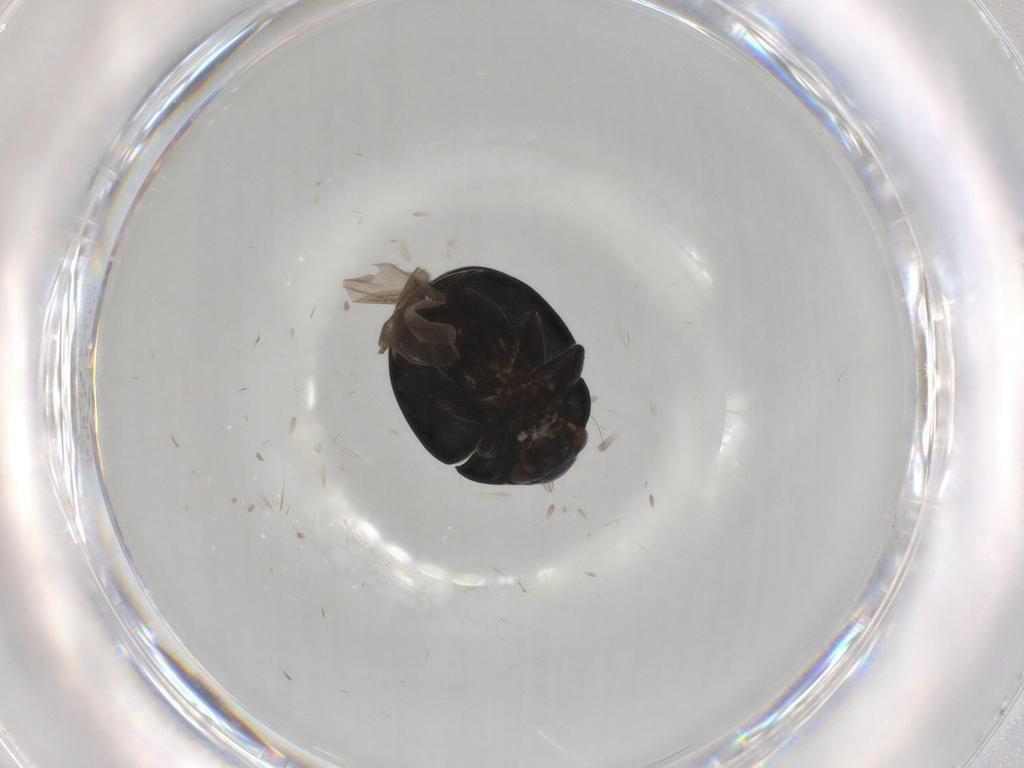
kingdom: Animalia
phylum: Arthropoda
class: Insecta
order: Coleoptera
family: Chrysomelidae
